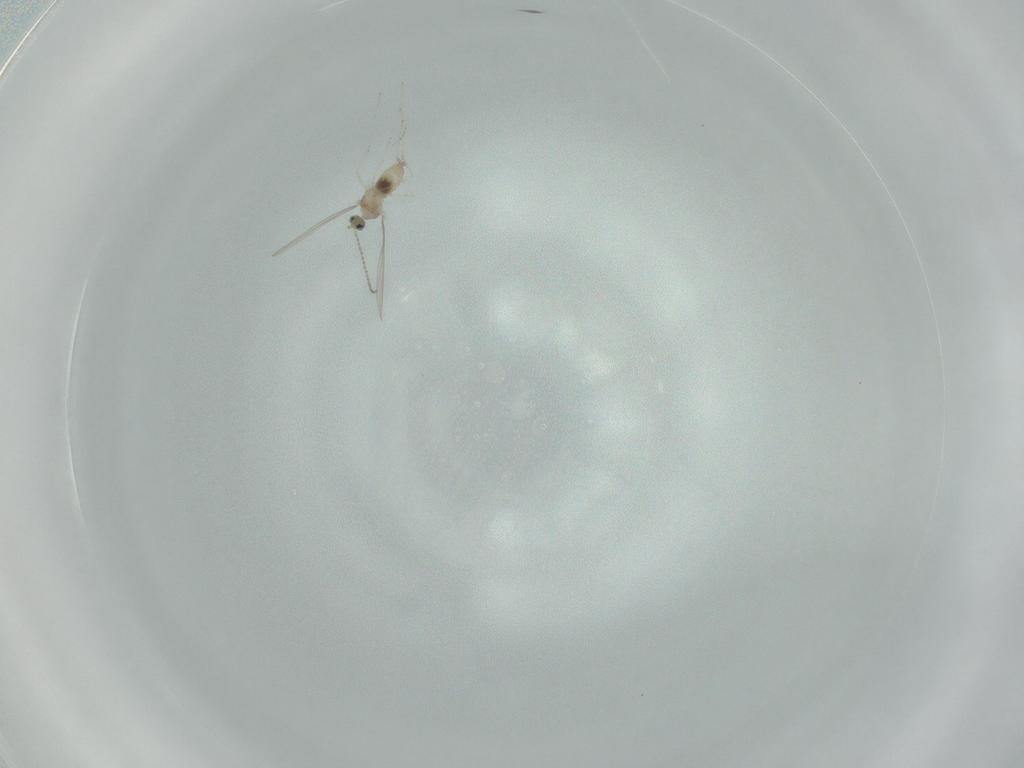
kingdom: Animalia
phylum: Arthropoda
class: Insecta
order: Diptera
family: Cecidomyiidae
